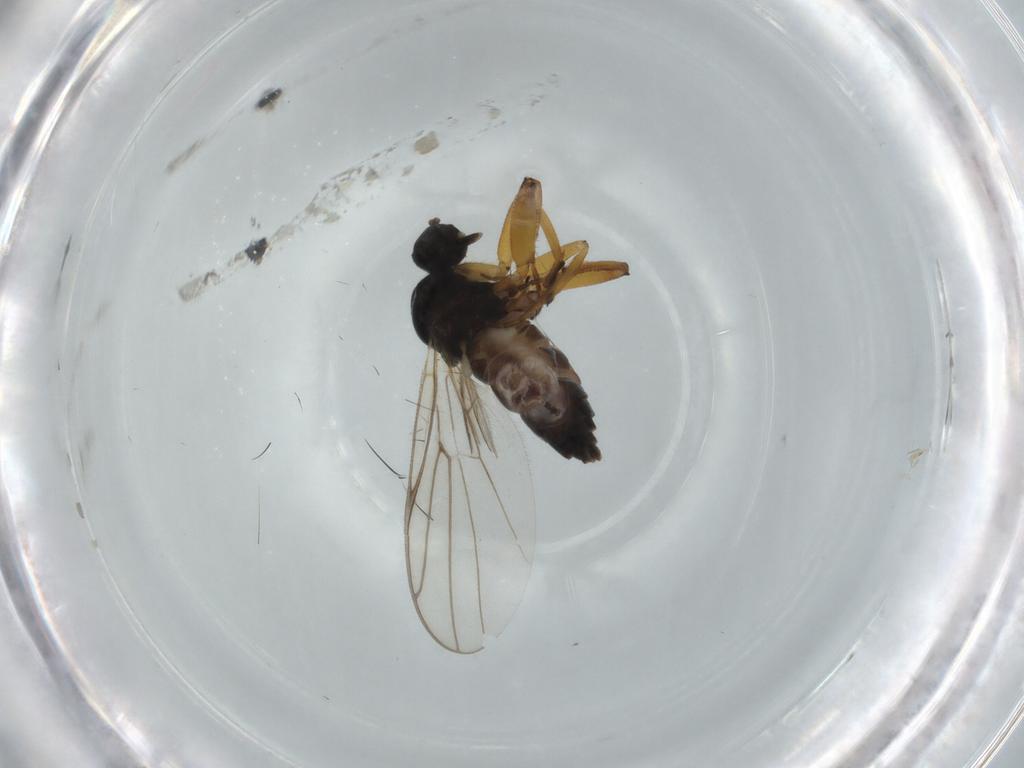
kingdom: Animalia
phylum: Arthropoda
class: Insecta
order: Diptera
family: Hybotidae
